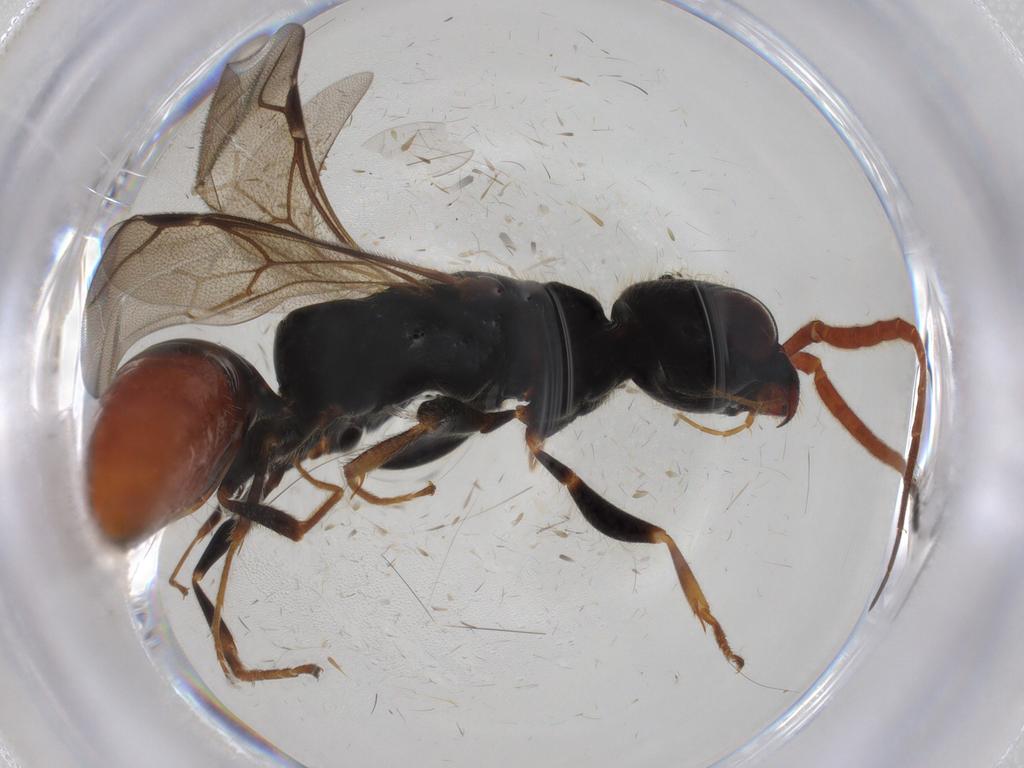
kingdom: Animalia
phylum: Arthropoda
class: Insecta
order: Hymenoptera
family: Bethylidae
